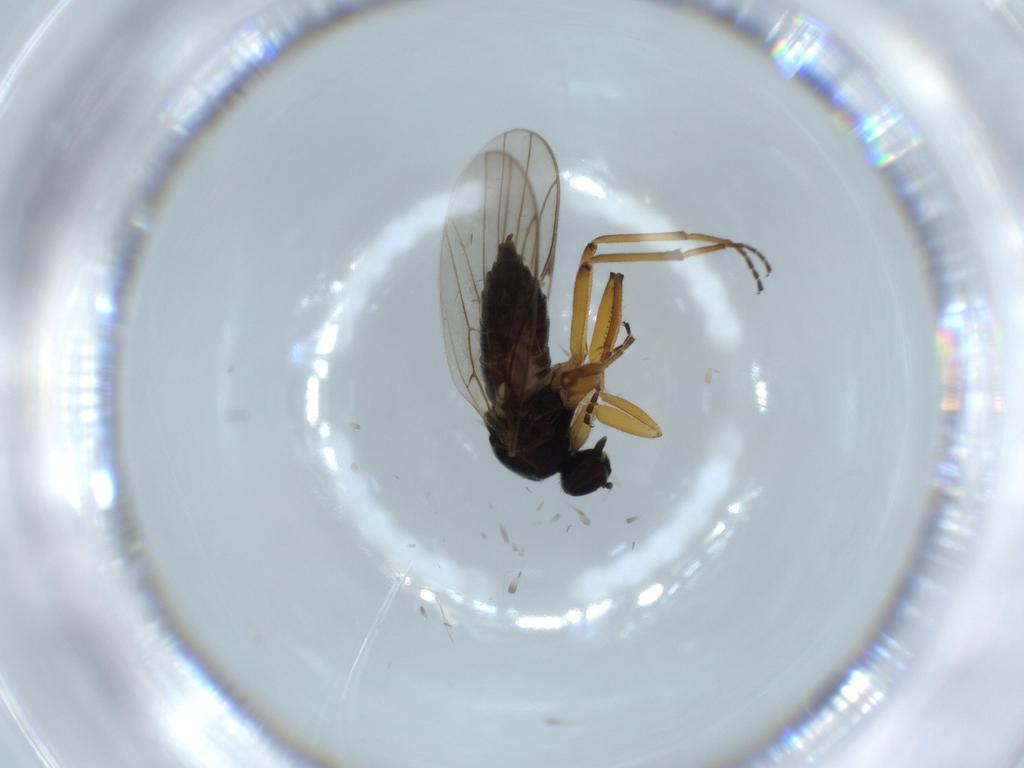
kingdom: Animalia
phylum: Arthropoda
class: Insecta
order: Diptera
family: Hybotidae
